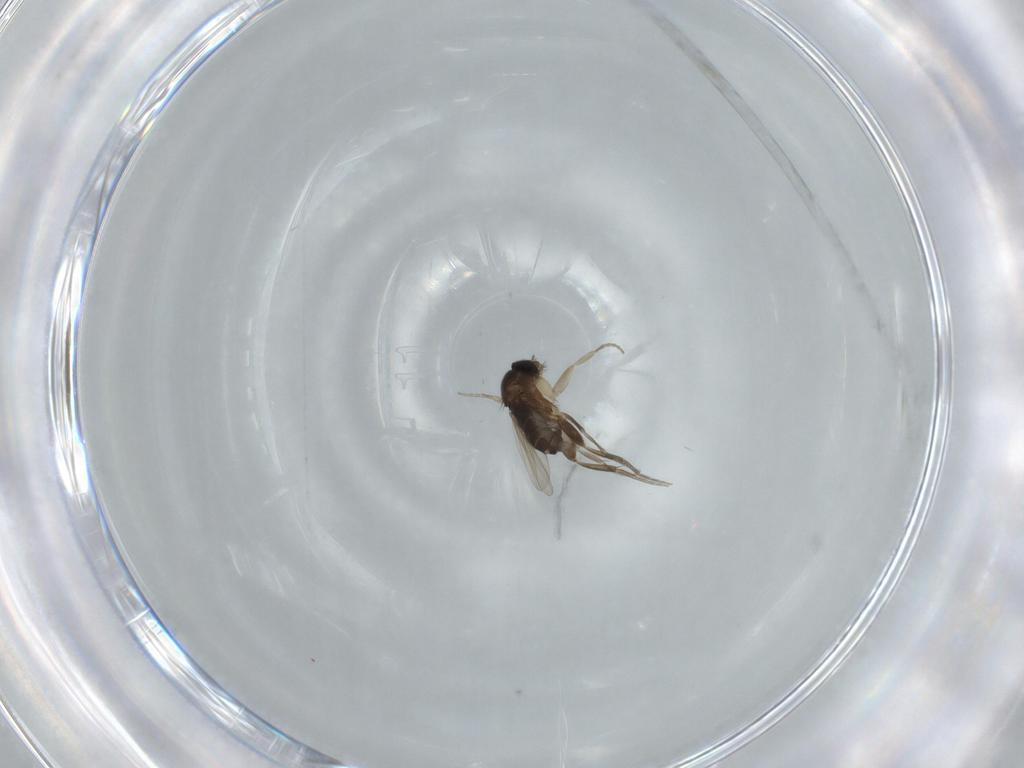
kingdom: Animalia
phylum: Arthropoda
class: Insecta
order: Diptera
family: Phoridae
